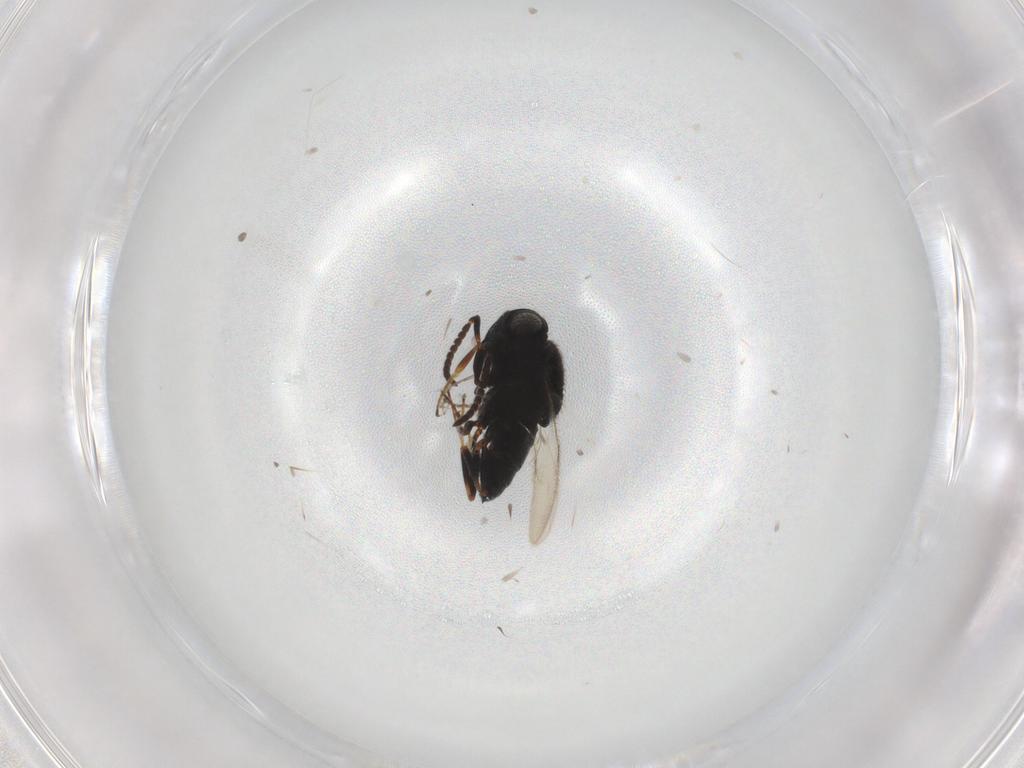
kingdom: Animalia
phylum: Arthropoda
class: Insecta
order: Hymenoptera
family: Scelionidae
